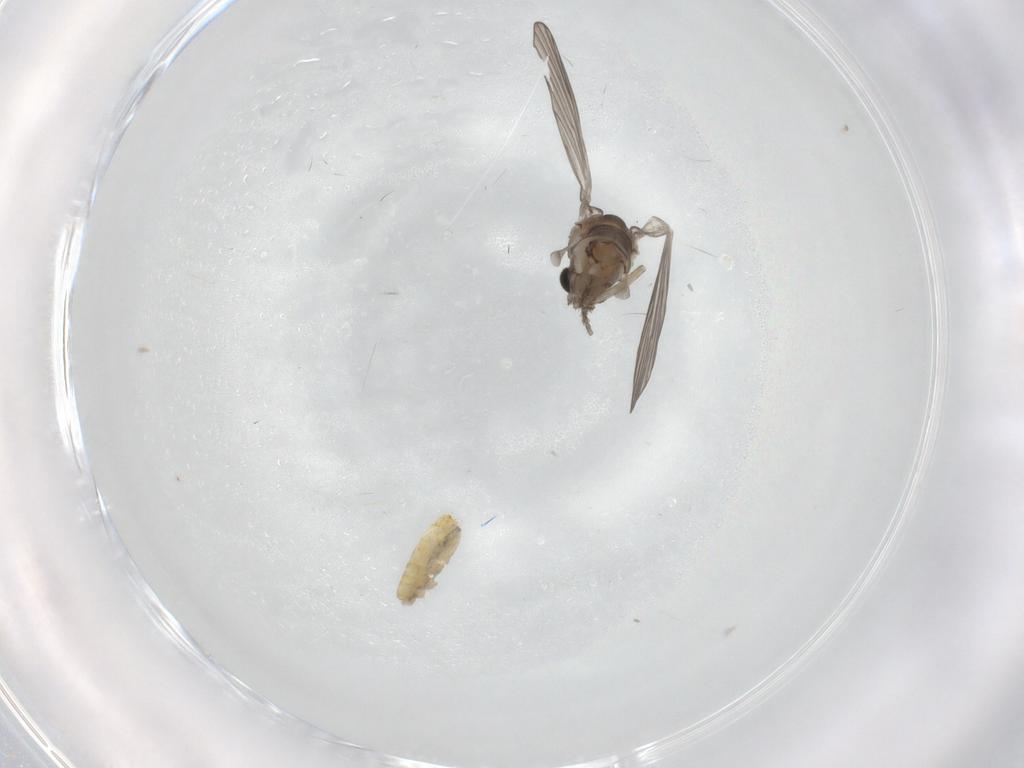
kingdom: Animalia
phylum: Arthropoda
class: Insecta
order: Diptera
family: Psychodidae
